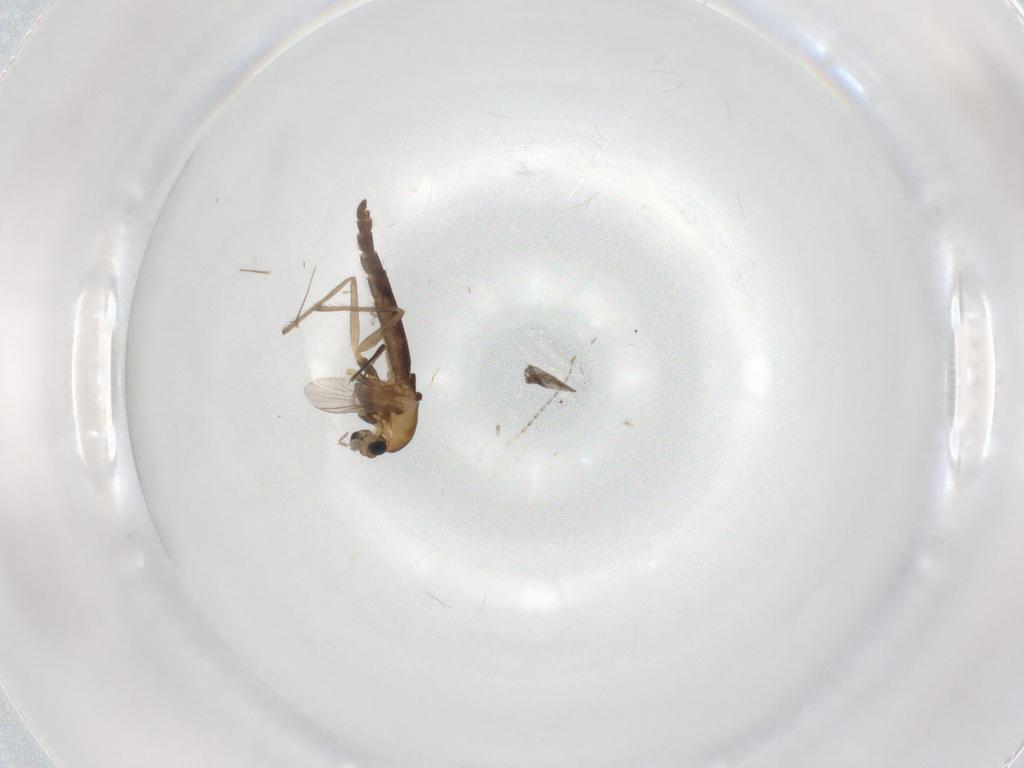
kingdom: Animalia
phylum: Arthropoda
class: Insecta
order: Diptera
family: Chironomidae
